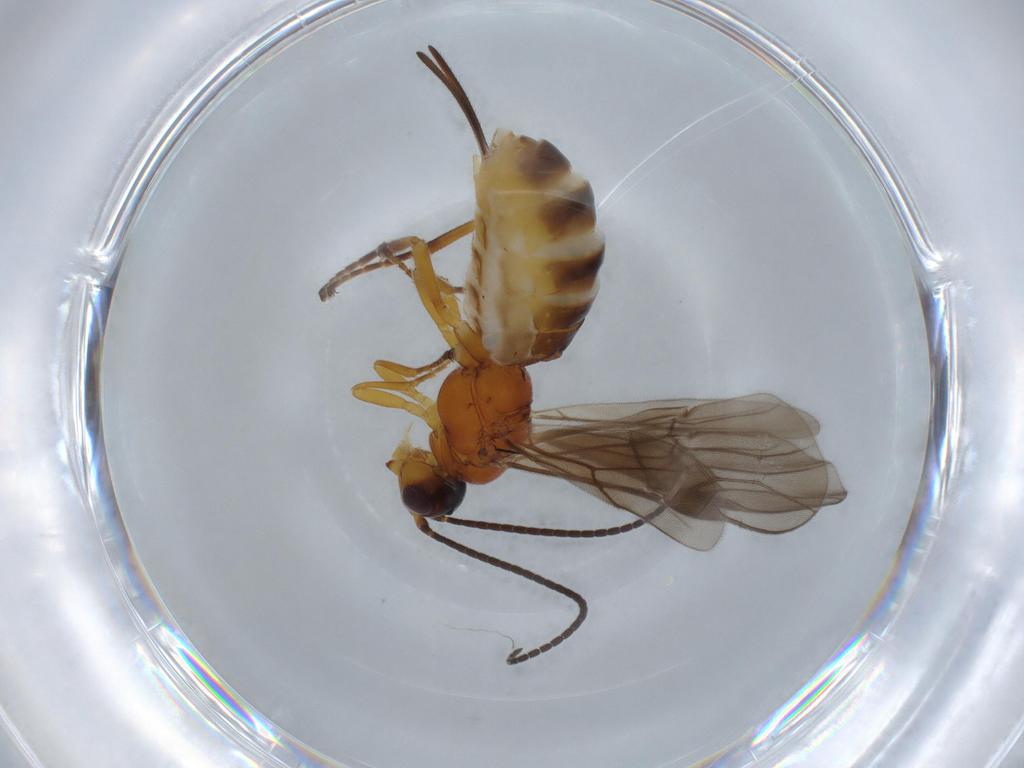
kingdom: Animalia
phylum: Arthropoda
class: Insecta
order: Hymenoptera
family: Braconidae
